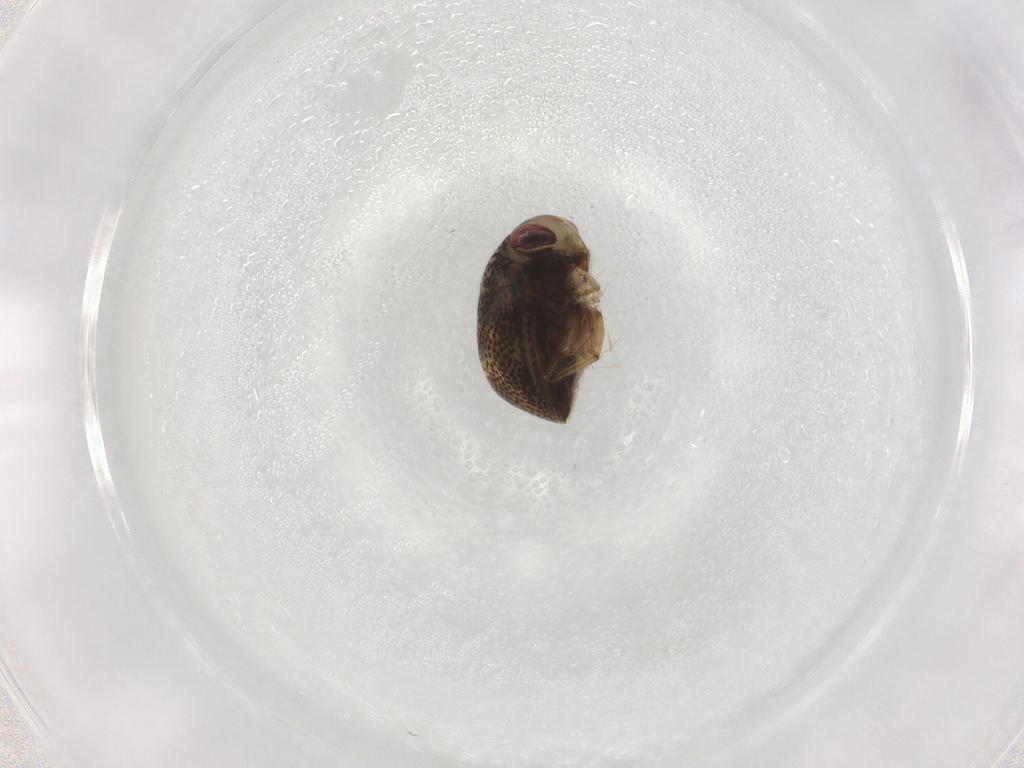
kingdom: Animalia
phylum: Arthropoda
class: Insecta
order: Hemiptera
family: Pleidae
